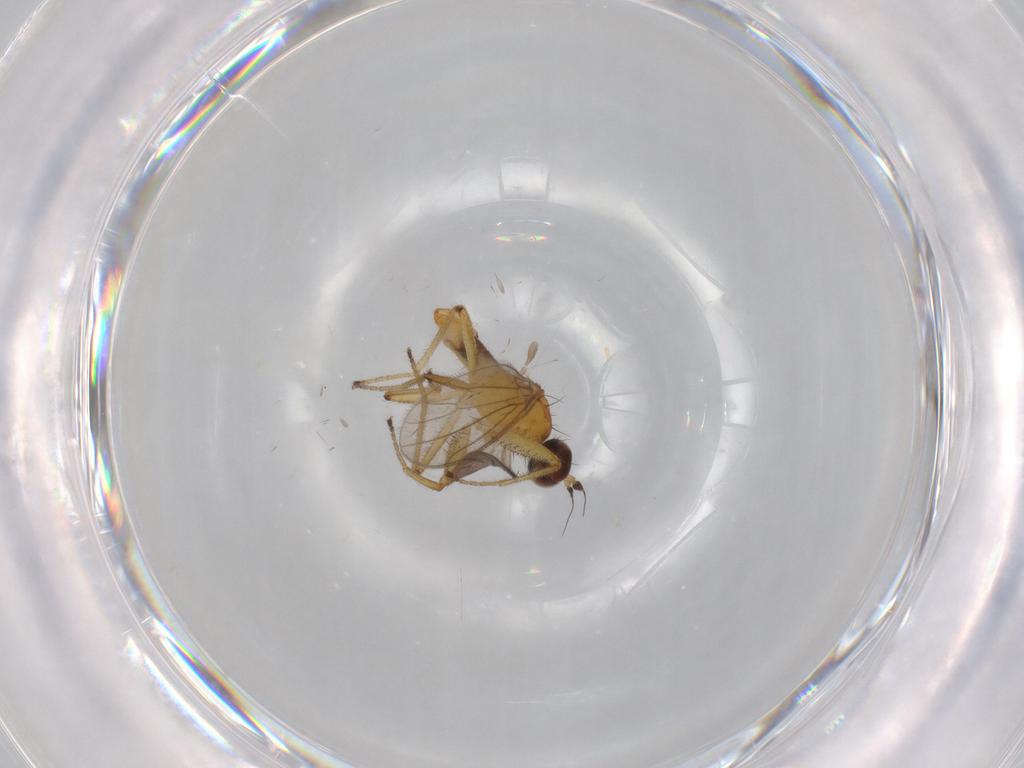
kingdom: Animalia
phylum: Arthropoda
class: Insecta
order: Diptera
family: Empididae
